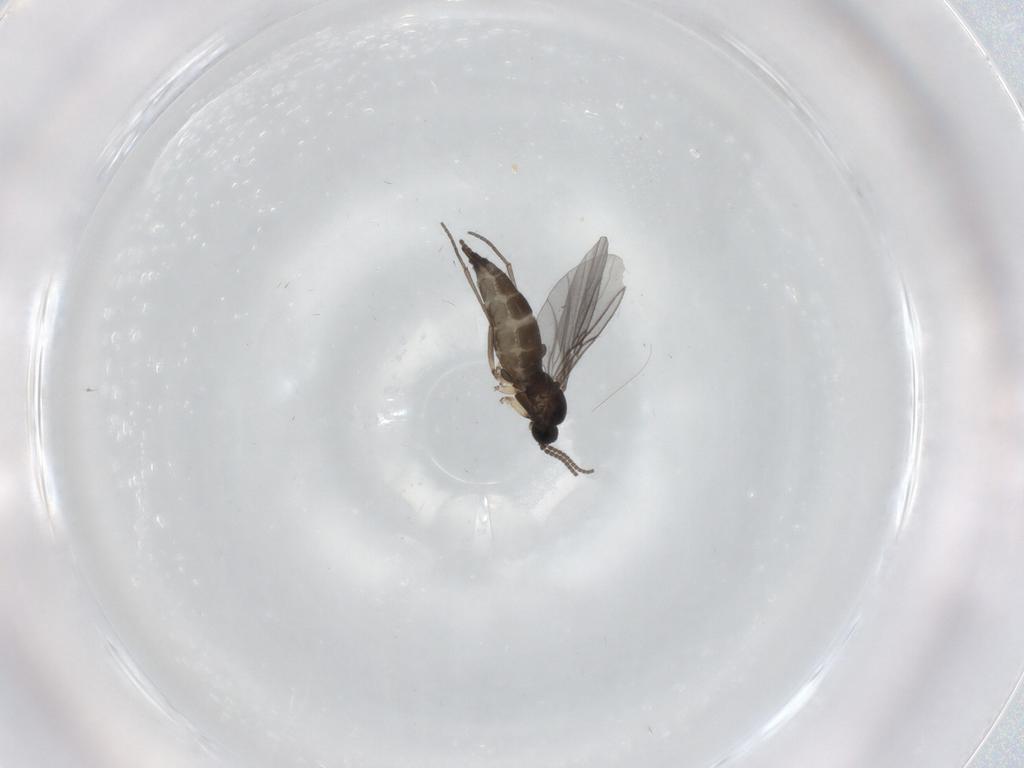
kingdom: Animalia
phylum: Arthropoda
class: Insecta
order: Diptera
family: Sciaridae
